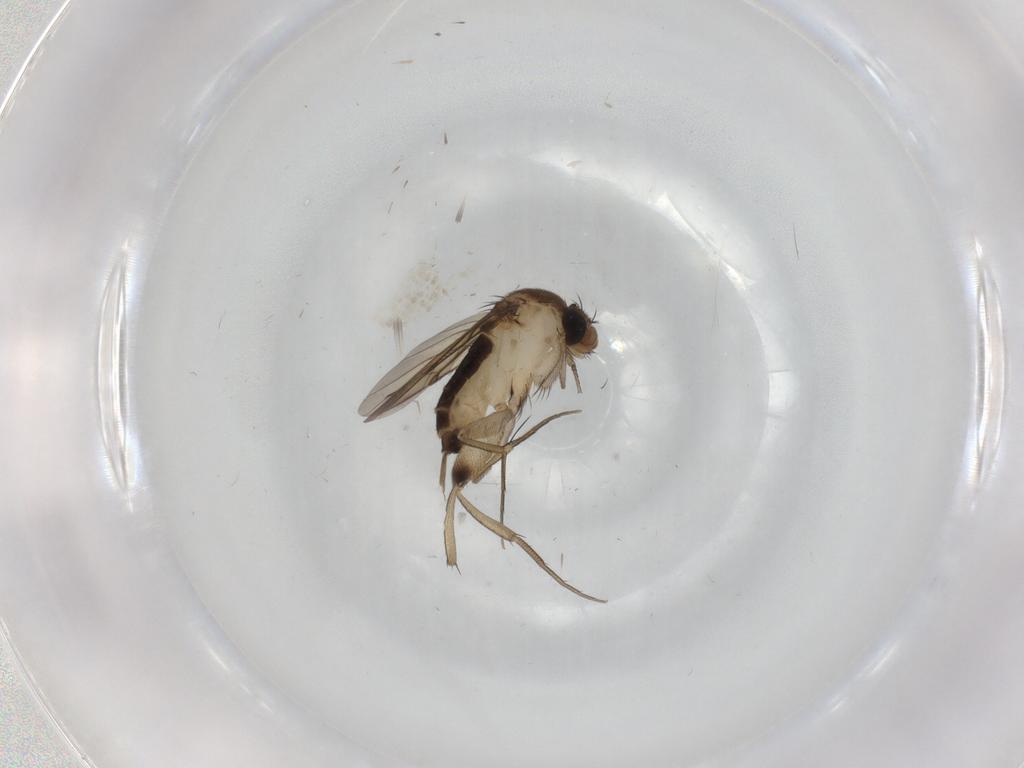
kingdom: Animalia
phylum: Arthropoda
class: Insecta
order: Diptera
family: Phoridae
